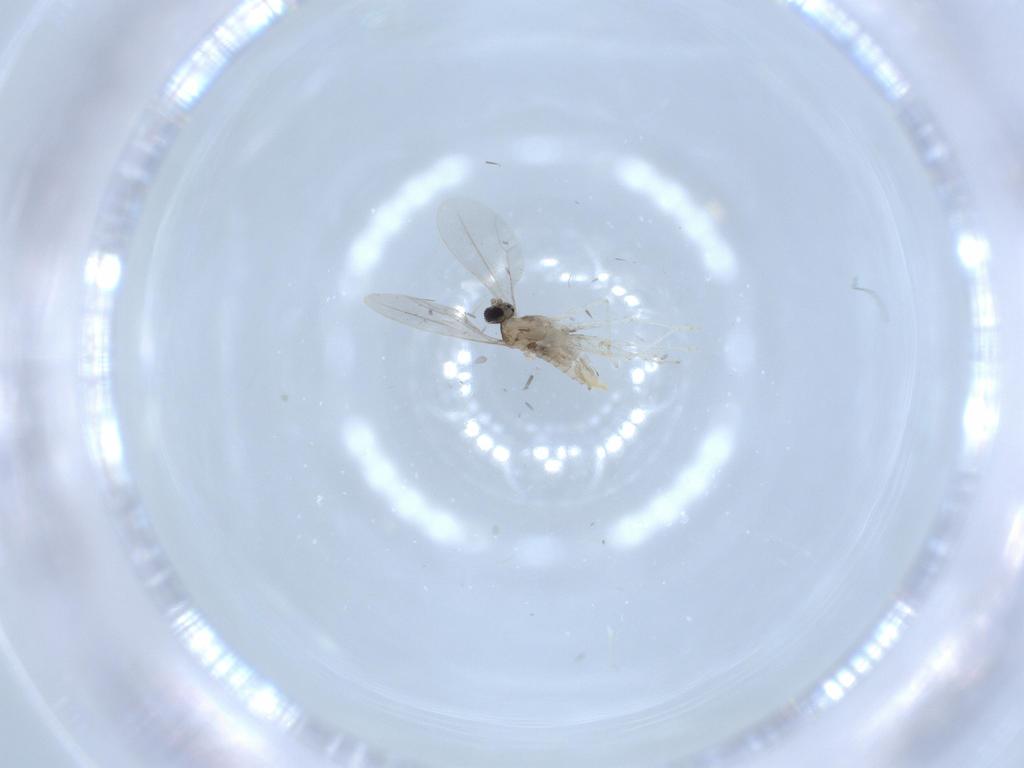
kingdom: Animalia
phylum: Arthropoda
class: Insecta
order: Diptera
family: Cecidomyiidae
